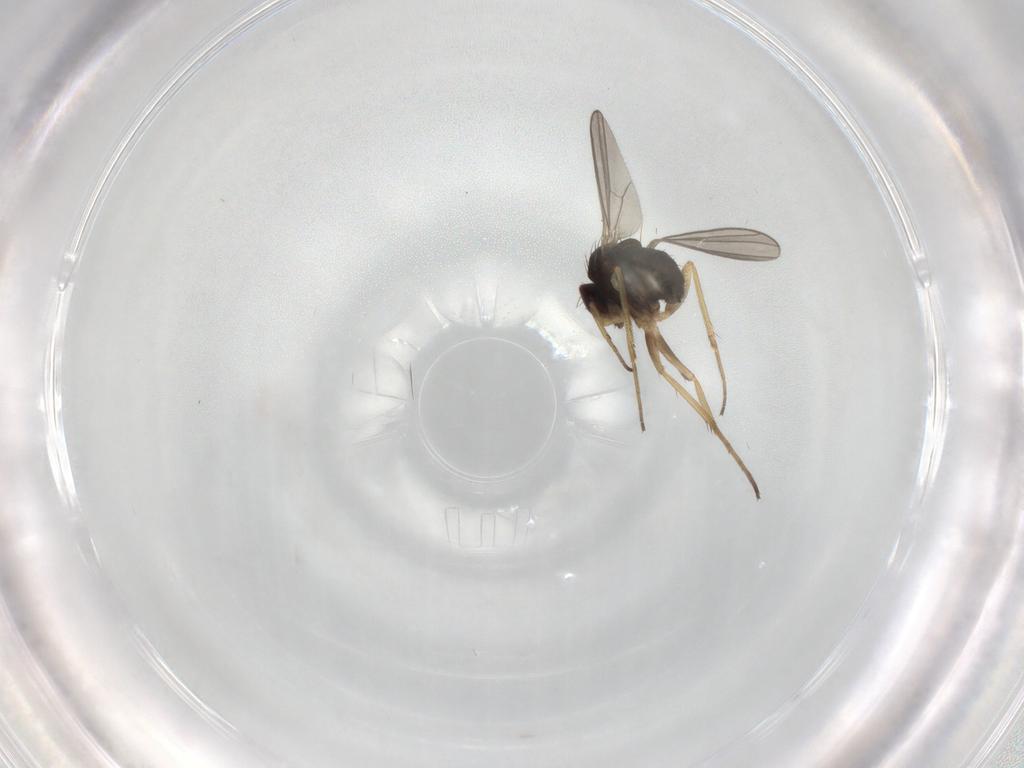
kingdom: Animalia
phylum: Arthropoda
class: Insecta
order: Diptera
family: Dolichopodidae
